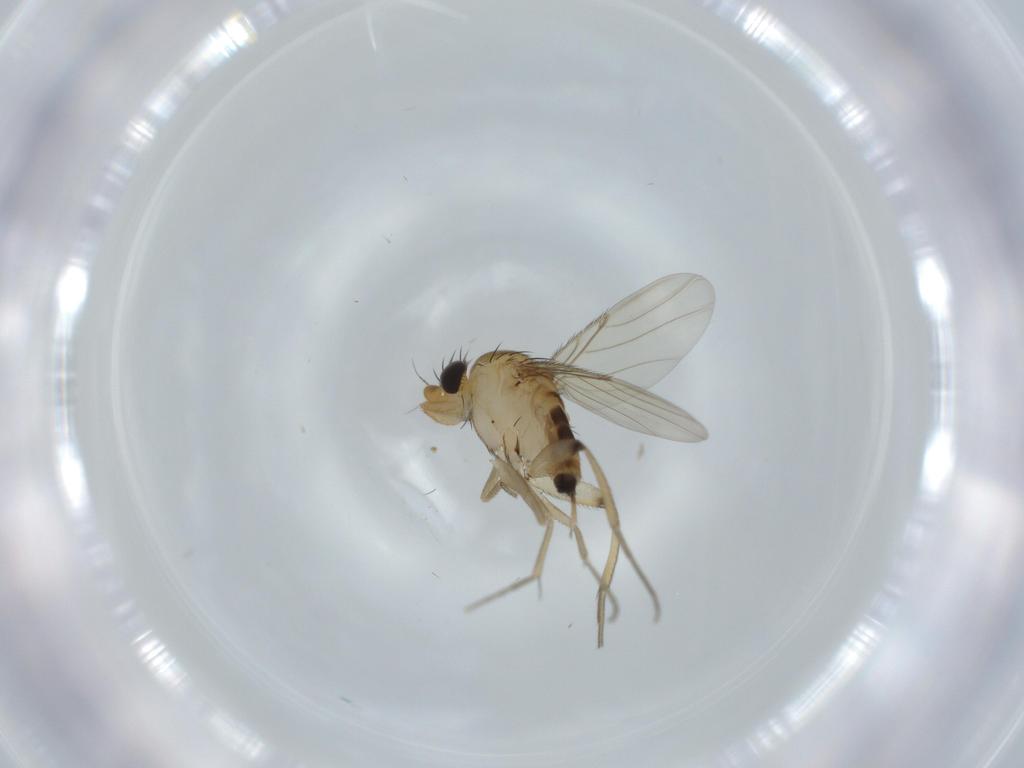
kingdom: Animalia
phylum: Arthropoda
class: Insecta
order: Diptera
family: Phoridae
